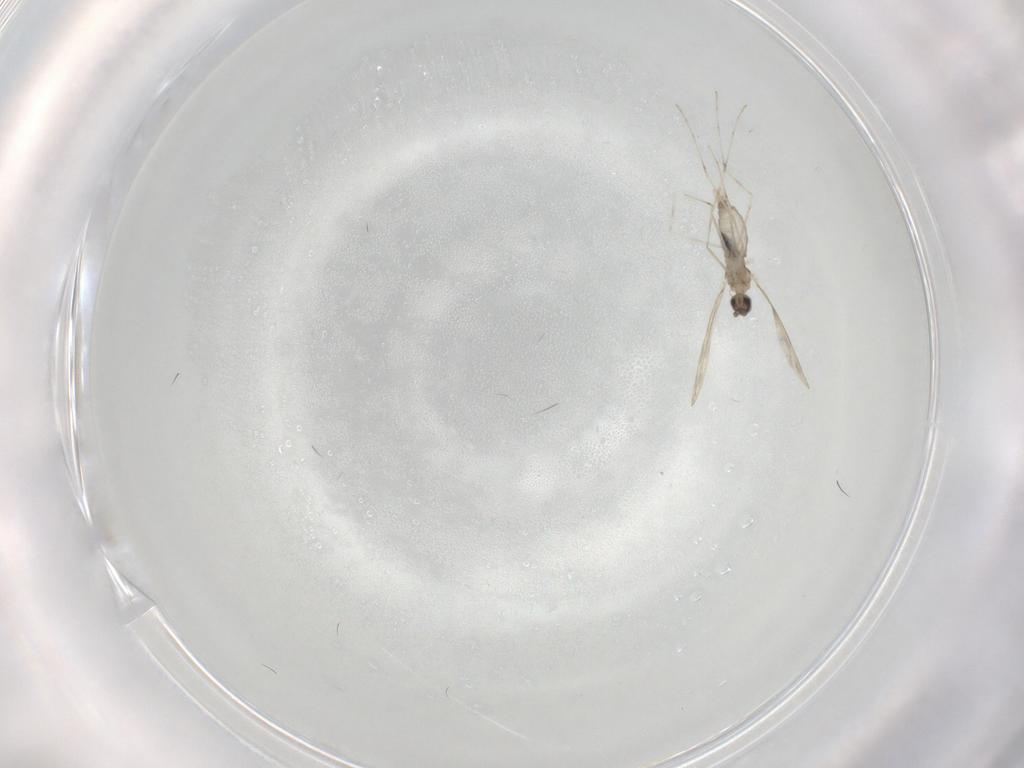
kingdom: Animalia
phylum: Arthropoda
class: Insecta
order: Diptera
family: Cecidomyiidae
